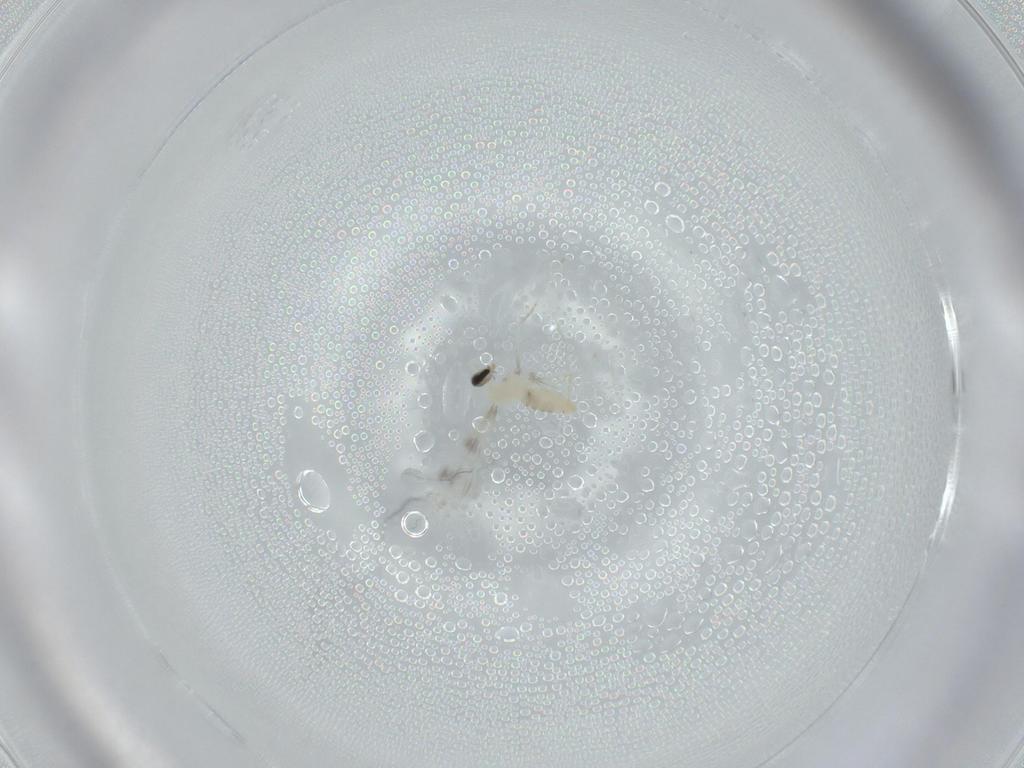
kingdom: Animalia
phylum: Arthropoda
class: Insecta
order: Diptera
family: Cecidomyiidae
